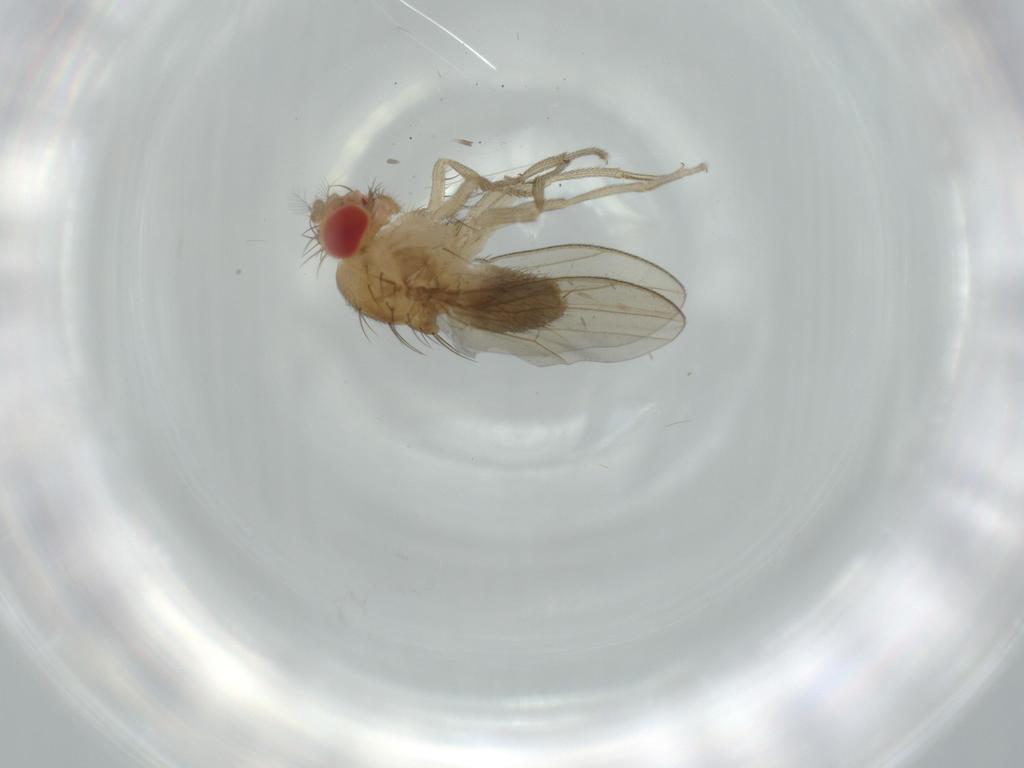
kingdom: Animalia
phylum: Arthropoda
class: Insecta
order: Diptera
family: Drosophilidae
